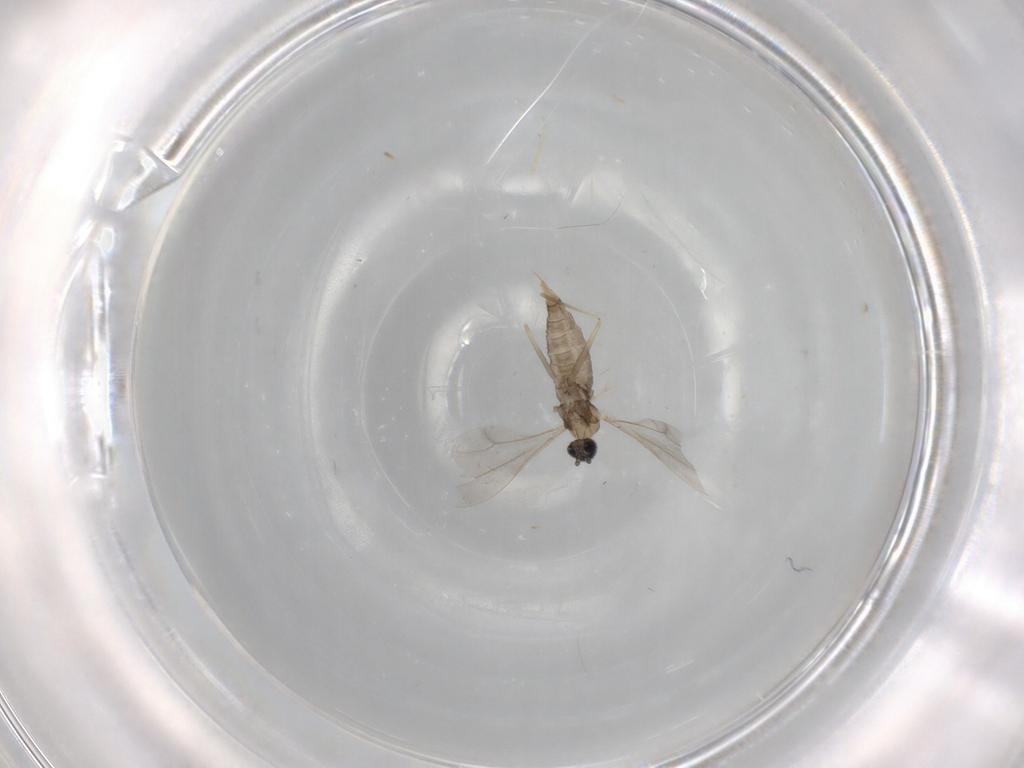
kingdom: Animalia
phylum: Arthropoda
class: Insecta
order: Diptera
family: Cecidomyiidae
